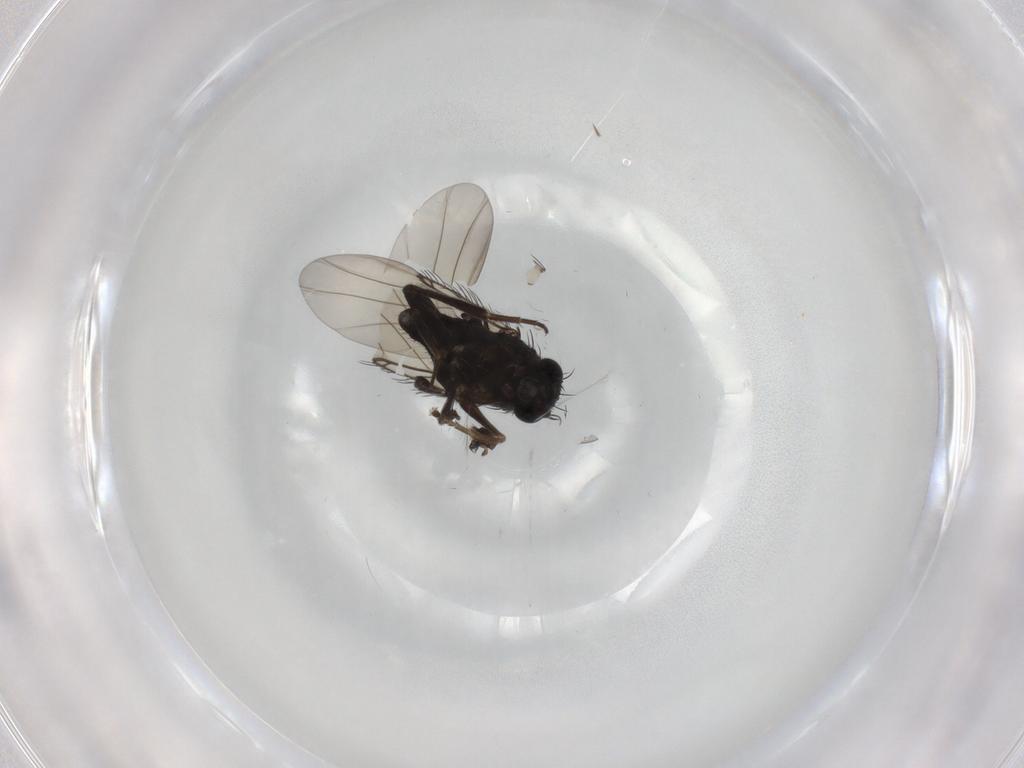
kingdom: Animalia
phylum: Arthropoda
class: Insecta
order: Diptera
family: Phoridae
